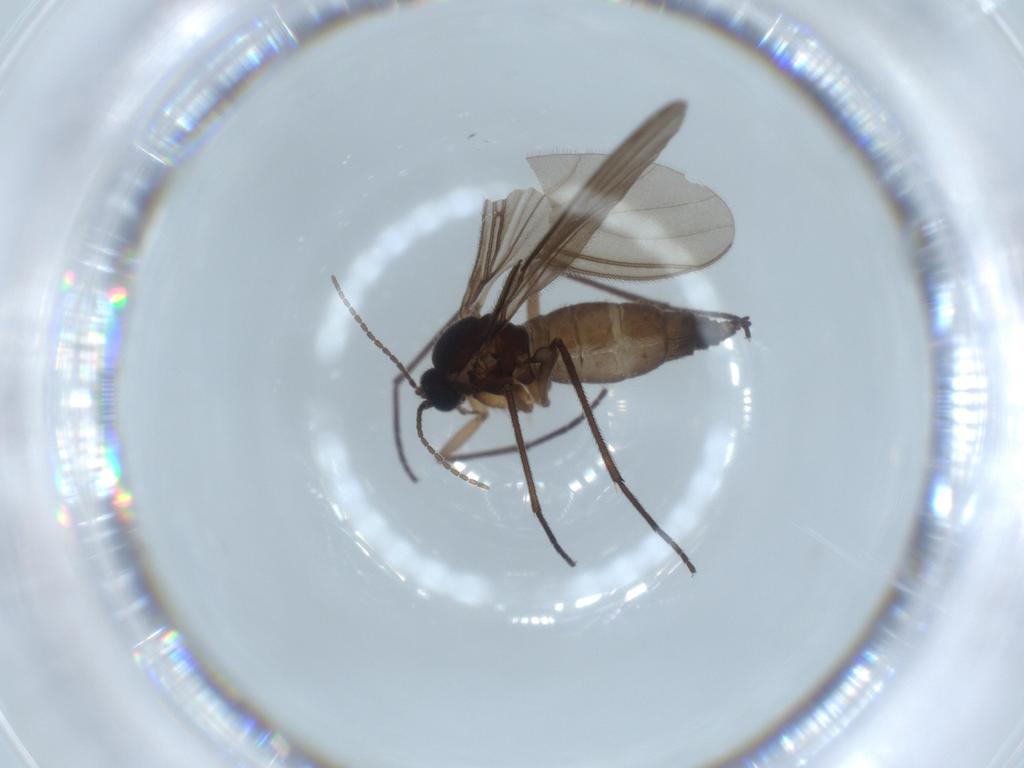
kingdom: Animalia
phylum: Arthropoda
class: Insecta
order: Diptera
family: Sciaridae
